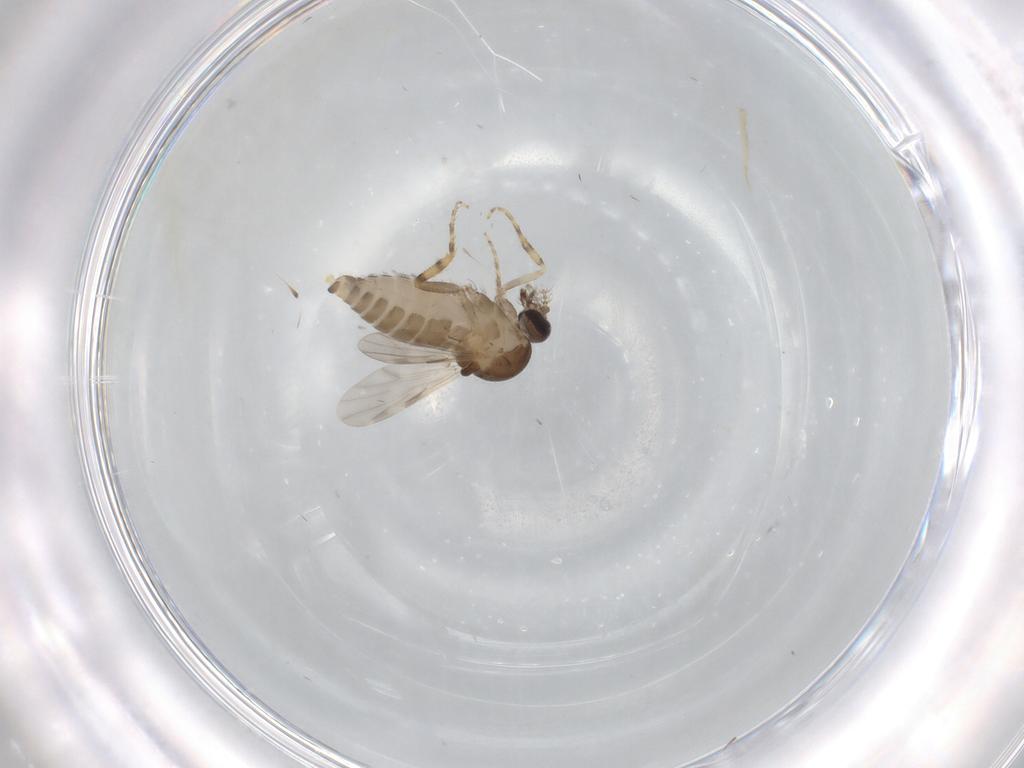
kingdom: Animalia
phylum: Arthropoda
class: Insecta
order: Diptera
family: Ceratopogonidae
